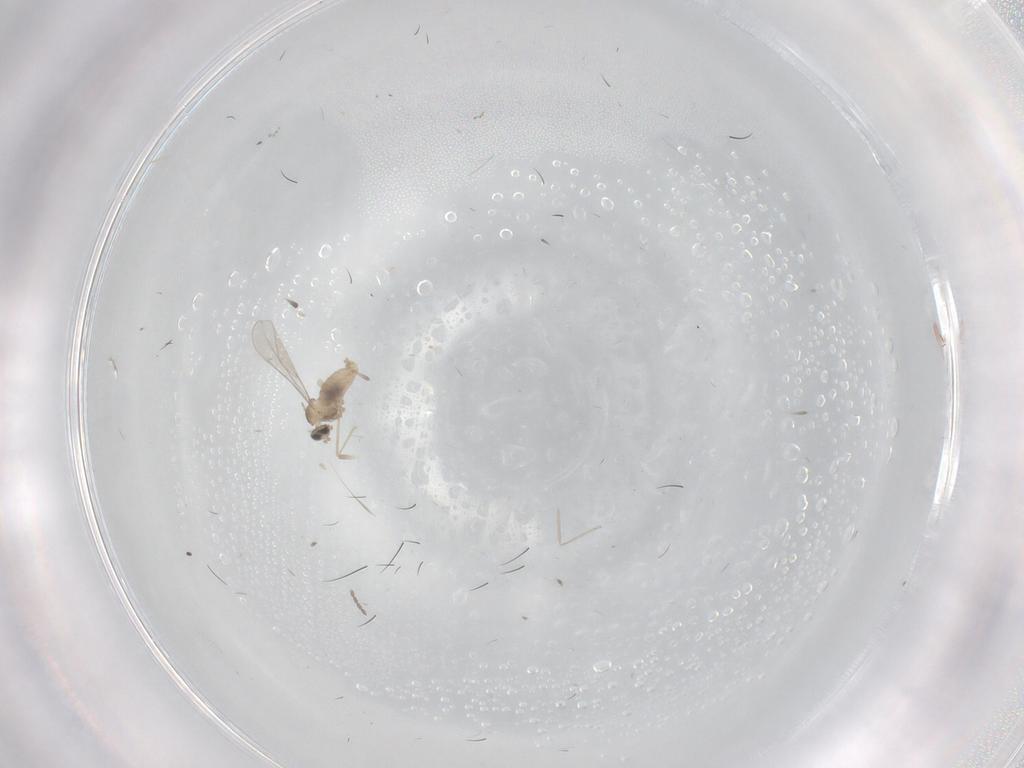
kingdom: Animalia
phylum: Arthropoda
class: Insecta
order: Diptera
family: Cecidomyiidae
